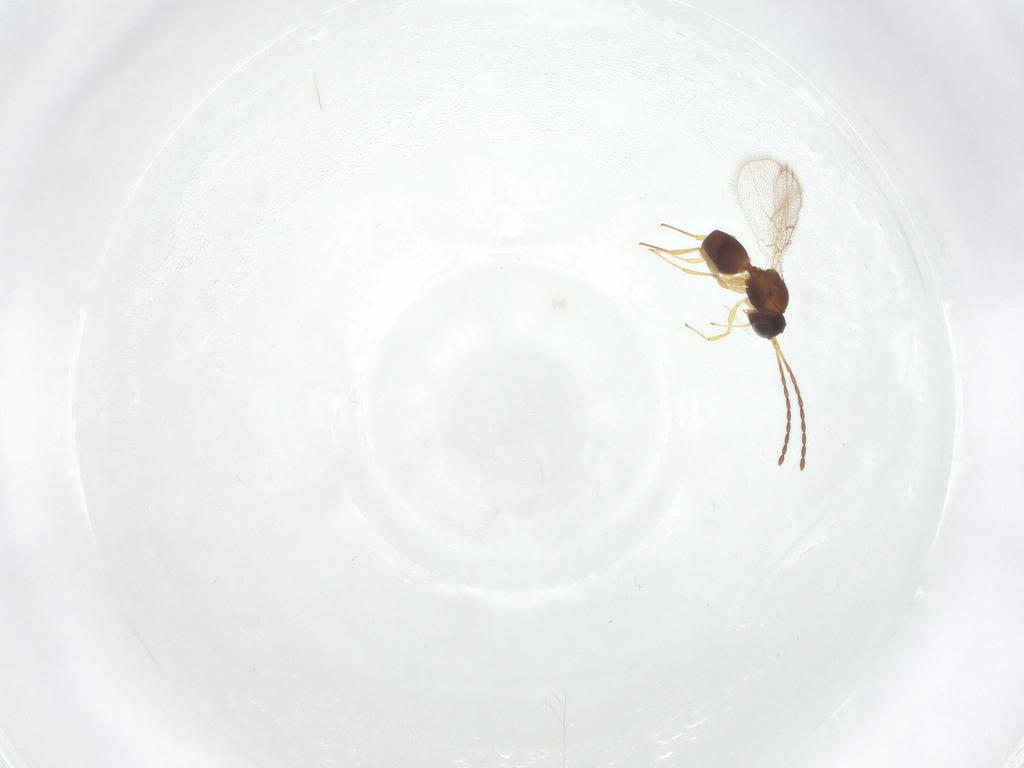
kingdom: Animalia
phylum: Arthropoda
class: Insecta
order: Hymenoptera
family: Figitidae
